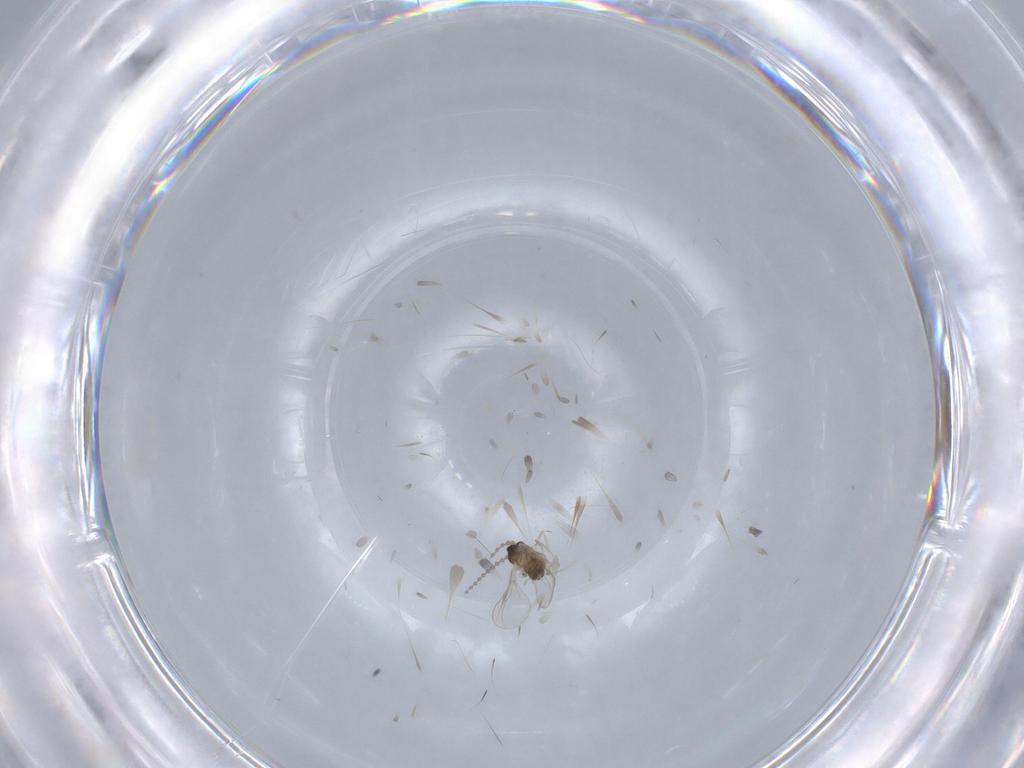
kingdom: Animalia
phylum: Arthropoda
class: Insecta
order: Diptera
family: Cecidomyiidae
